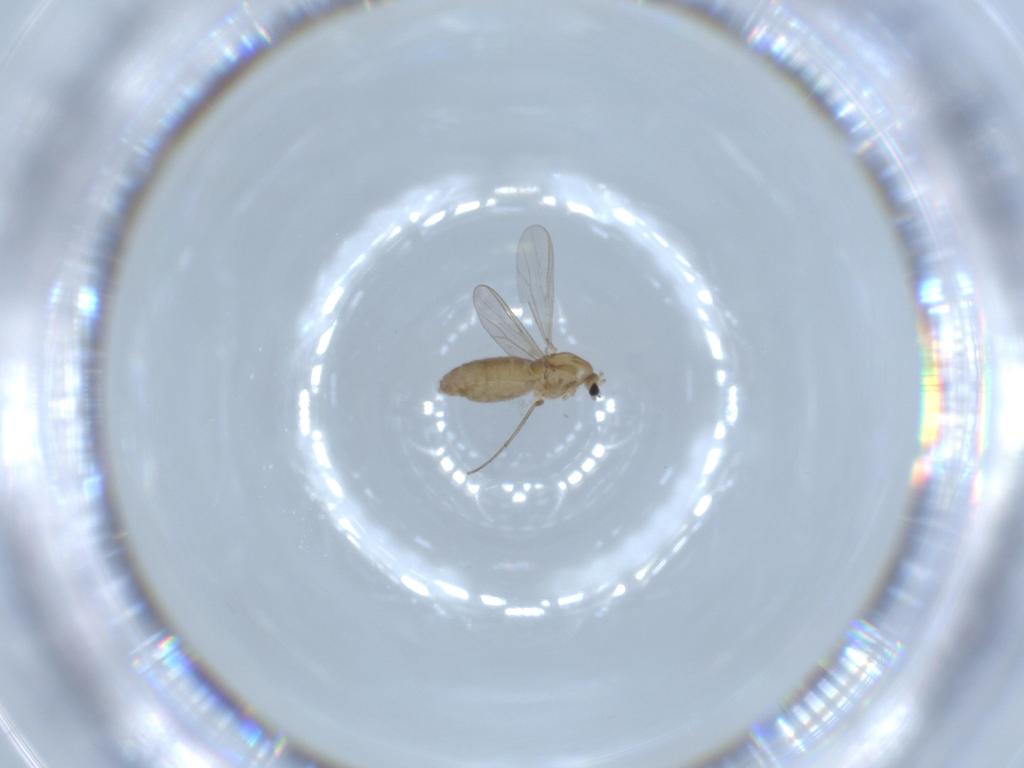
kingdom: Animalia
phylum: Arthropoda
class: Insecta
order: Diptera
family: Chironomidae
